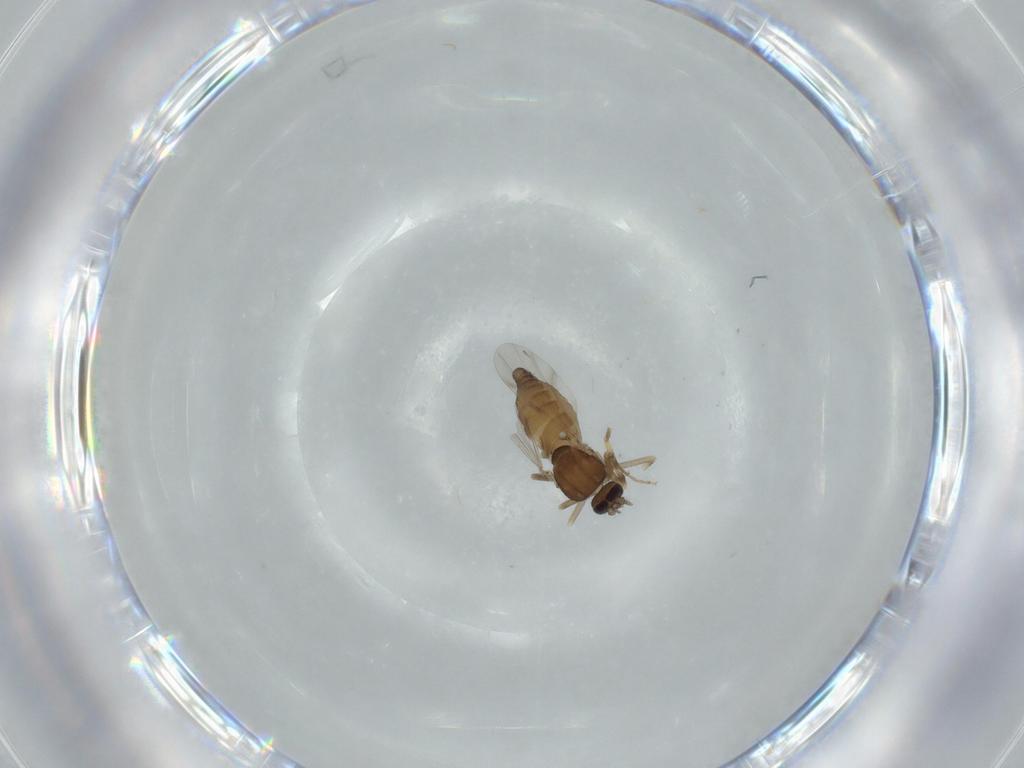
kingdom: Animalia
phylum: Arthropoda
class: Insecta
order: Diptera
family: Ceratopogonidae
